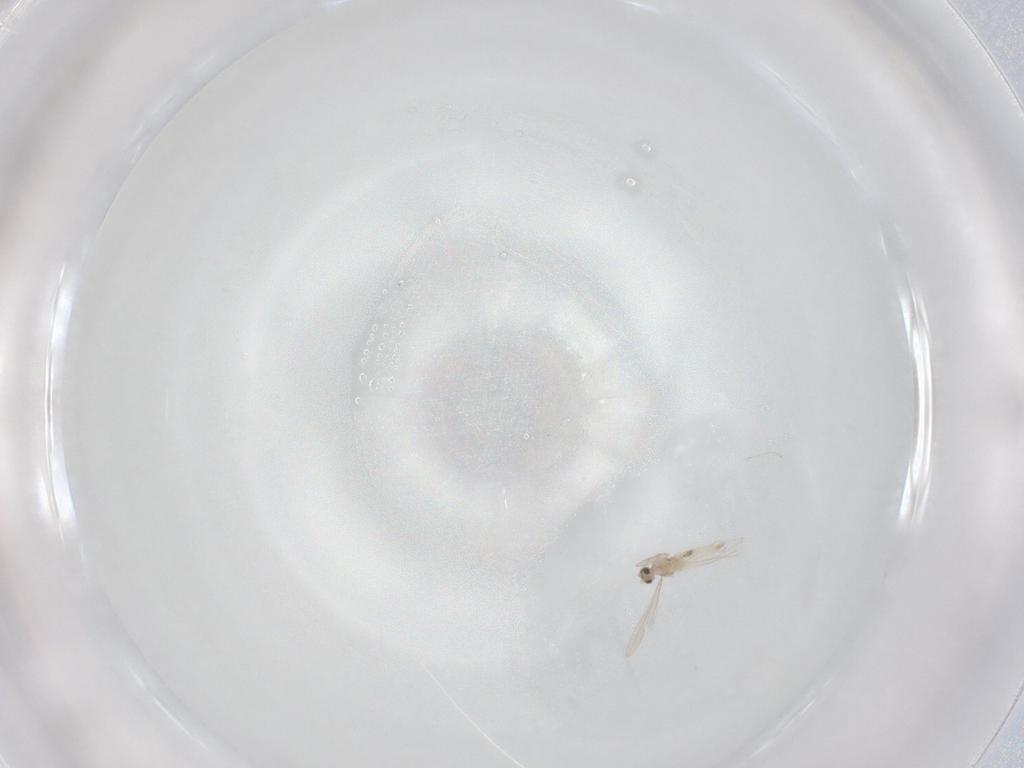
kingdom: Animalia
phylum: Arthropoda
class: Insecta
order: Diptera
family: Cecidomyiidae
